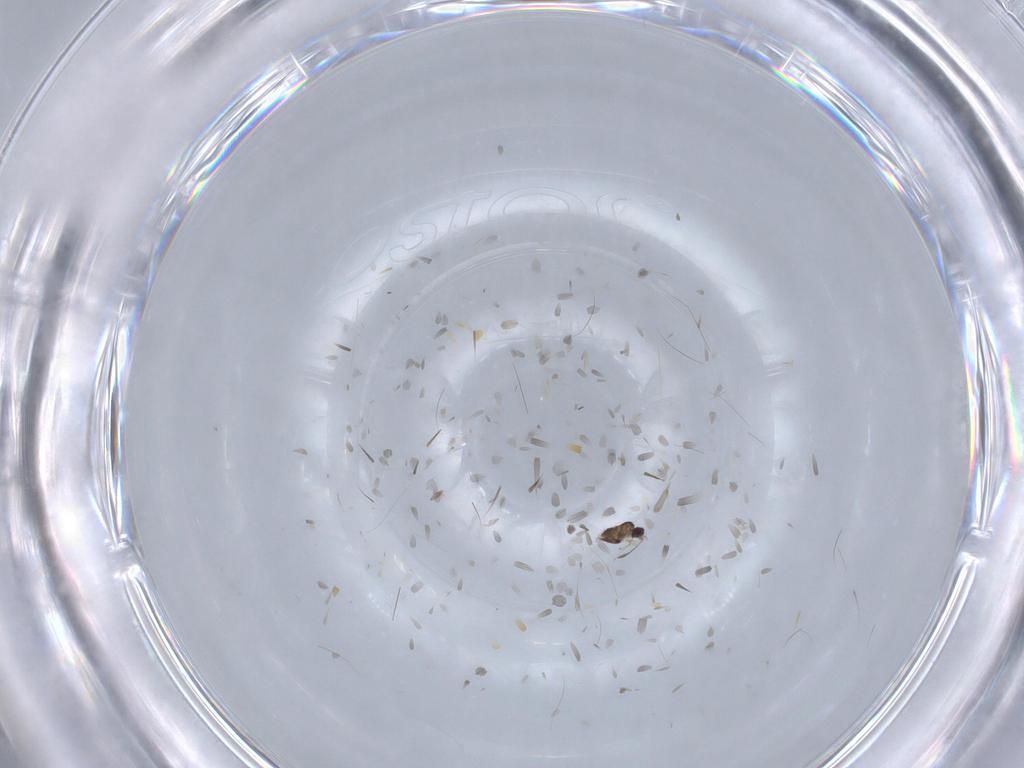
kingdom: Animalia
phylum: Arthropoda
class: Insecta
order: Hymenoptera
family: Mymaridae
